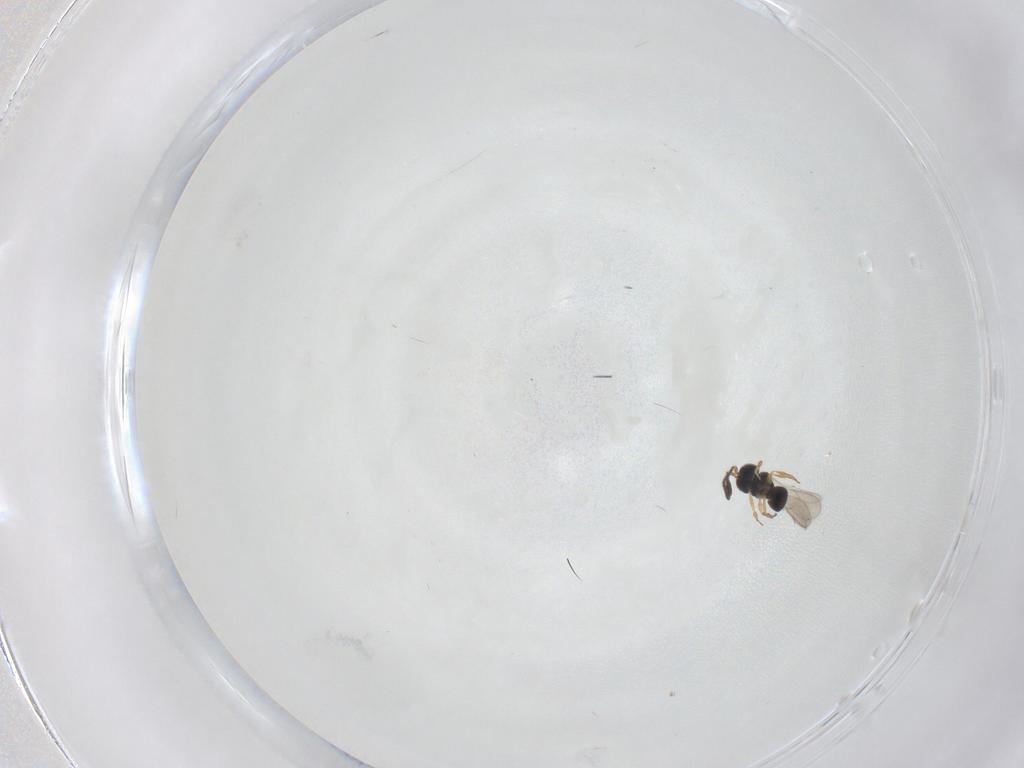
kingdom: Animalia
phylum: Arthropoda
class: Insecta
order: Hymenoptera
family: Scelionidae
